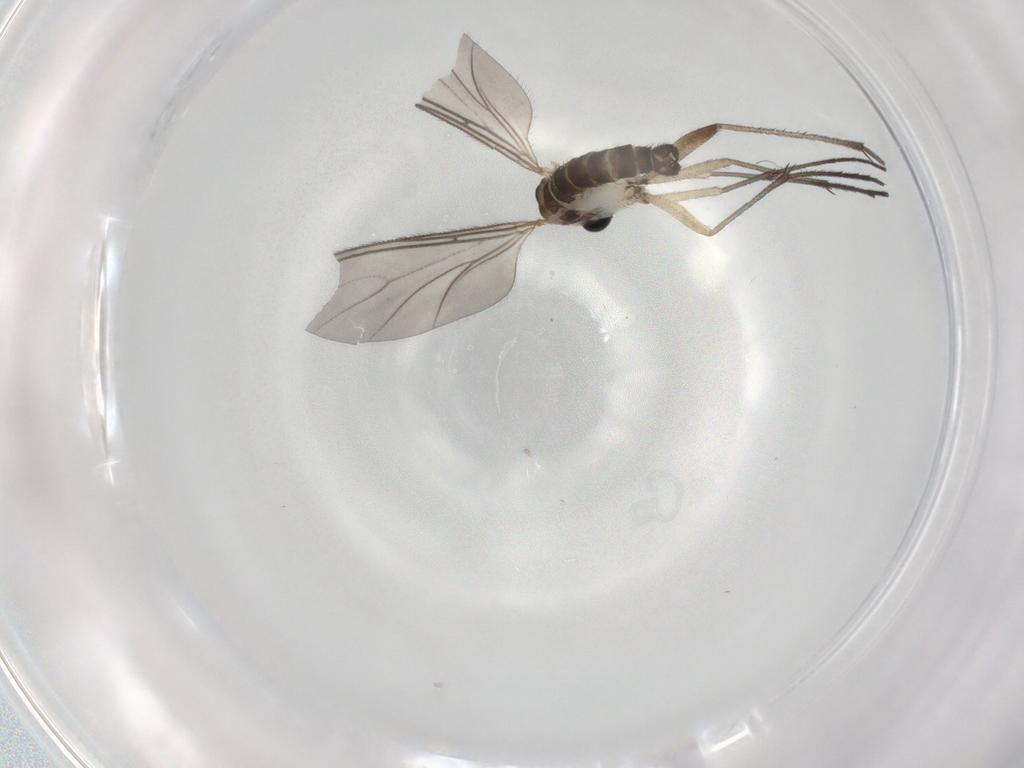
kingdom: Animalia
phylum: Arthropoda
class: Insecta
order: Diptera
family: Sciaridae
